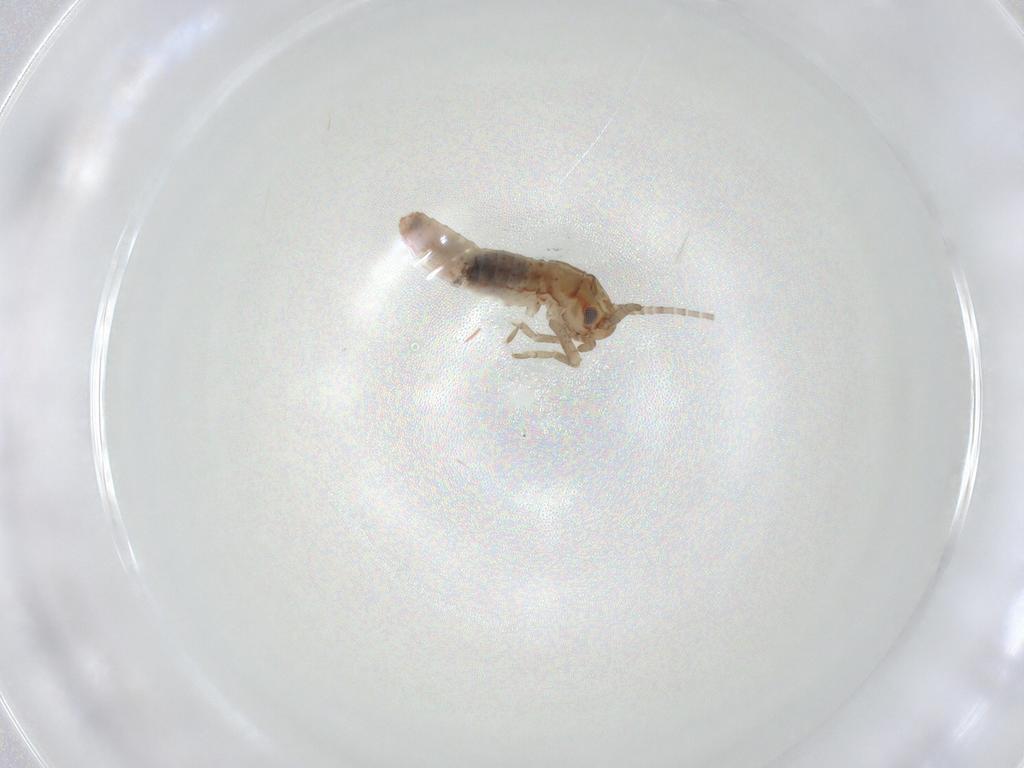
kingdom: Animalia
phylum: Arthropoda
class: Insecta
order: Orthoptera
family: Mogoplistidae
